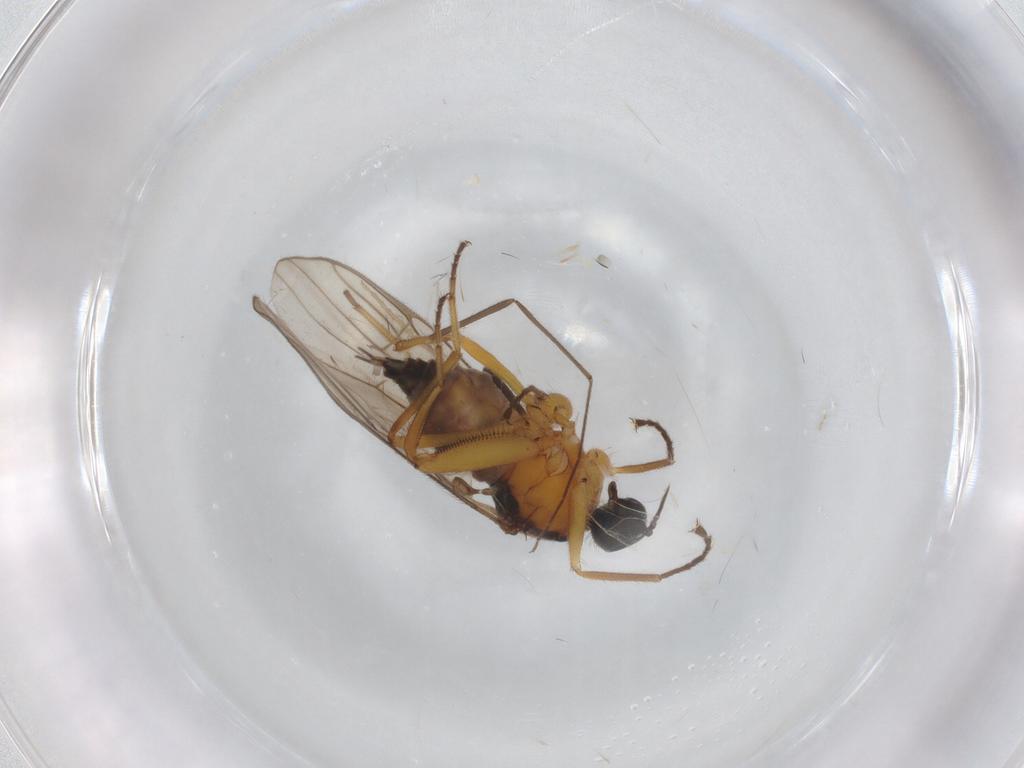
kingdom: Animalia
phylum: Arthropoda
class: Insecta
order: Diptera
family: Hybotidae
